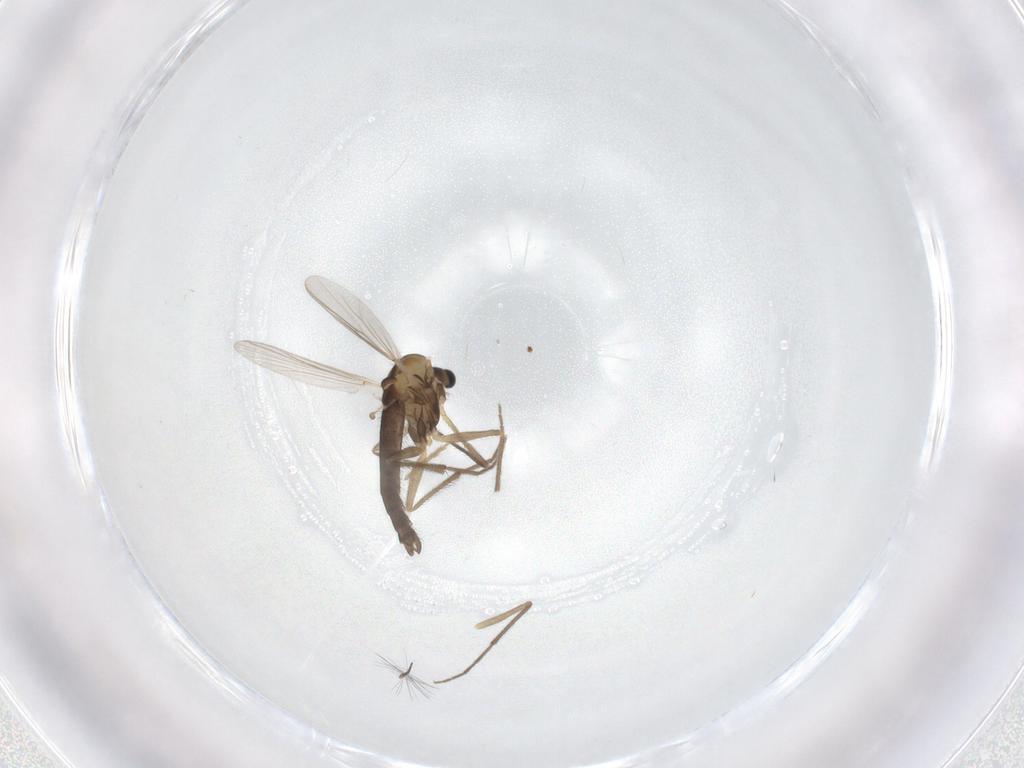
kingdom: Animalia
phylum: Arthropoda
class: Insecta
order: Diptera
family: Chironomidae
